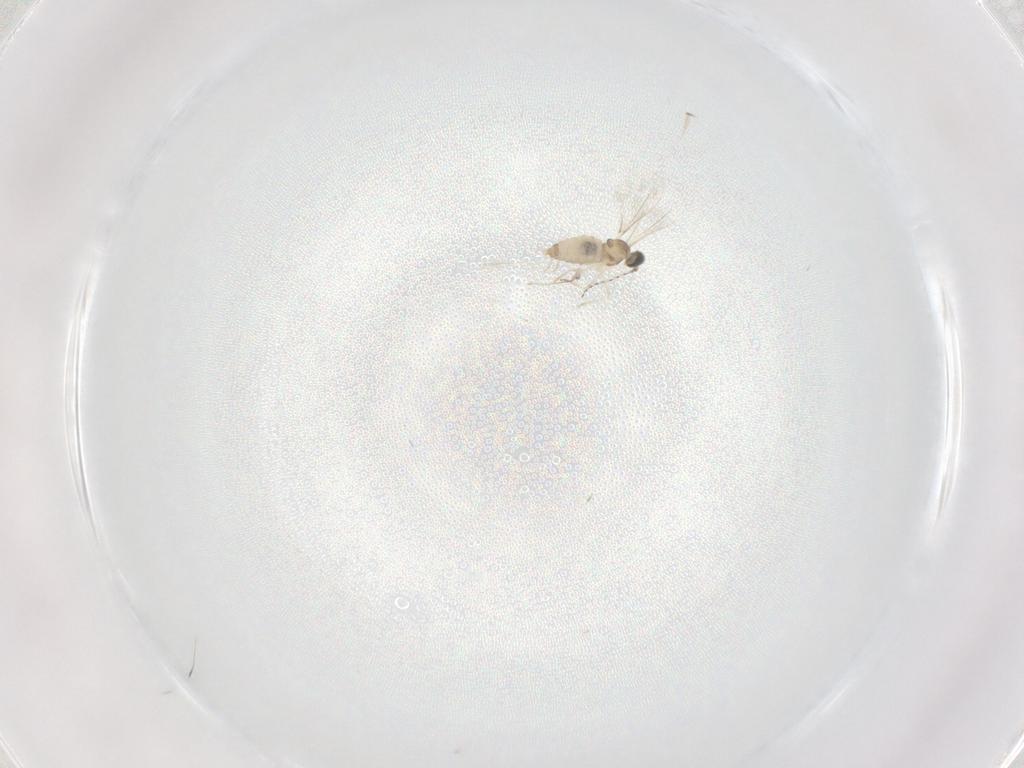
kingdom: Animalia
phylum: Arthropoda
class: Insecta
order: Diptera
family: Cecidomyiidae
